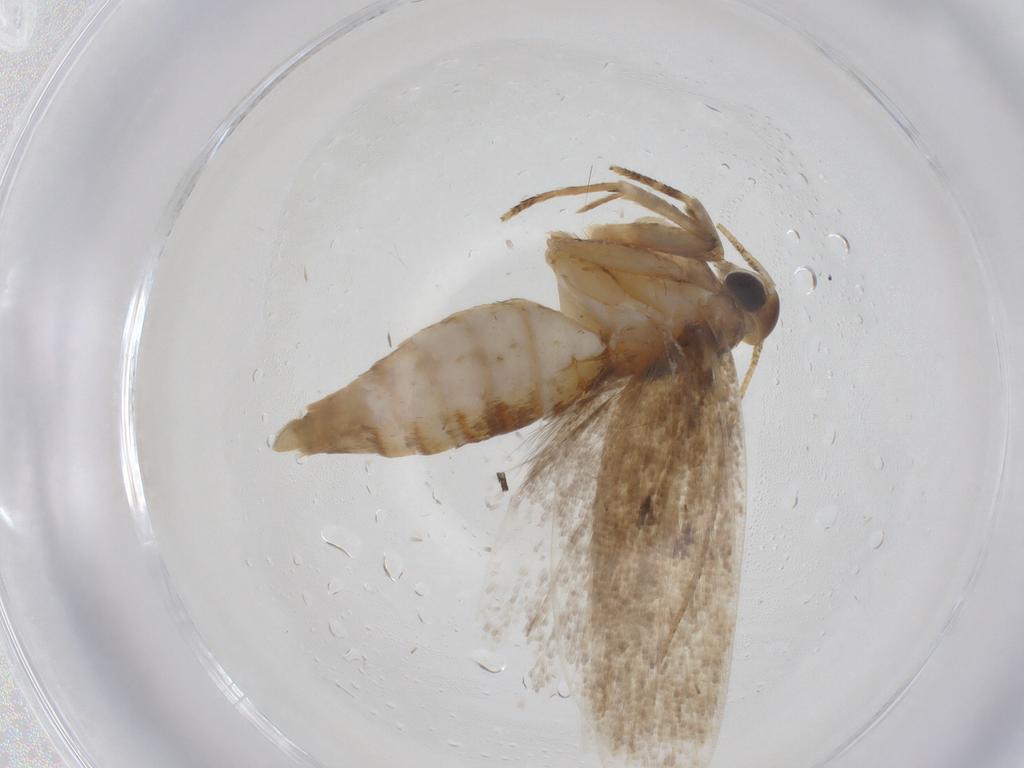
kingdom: Animalia
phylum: Arthropoda
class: Insecta
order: Lepidoptera
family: Oecophoridae
